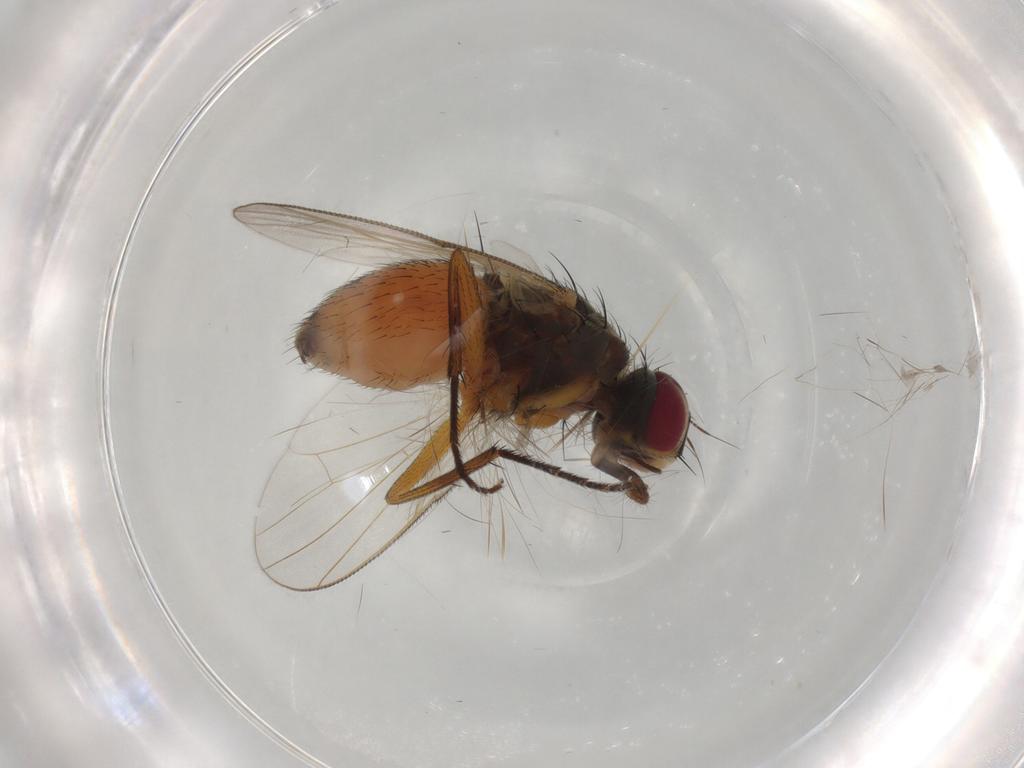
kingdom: Animalia
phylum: Arthropoda
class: Insecta
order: Diptera
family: Muscidae
